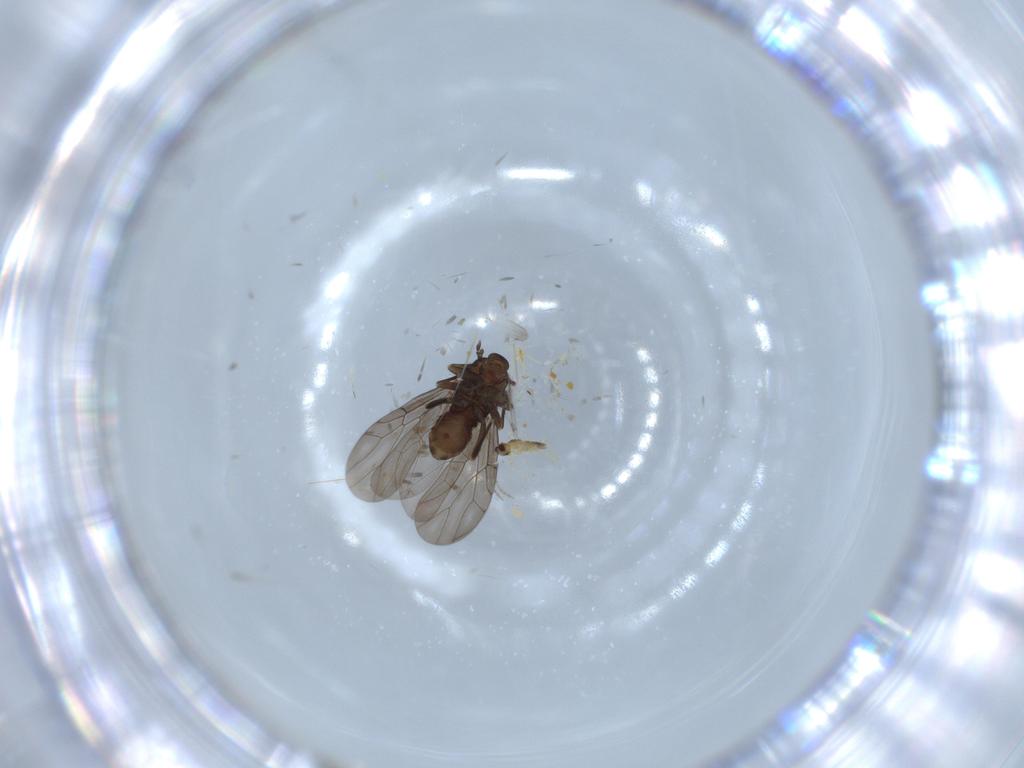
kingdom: Animalia
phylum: Arthropoda
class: Insecta
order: Diptera
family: Psychodidae
